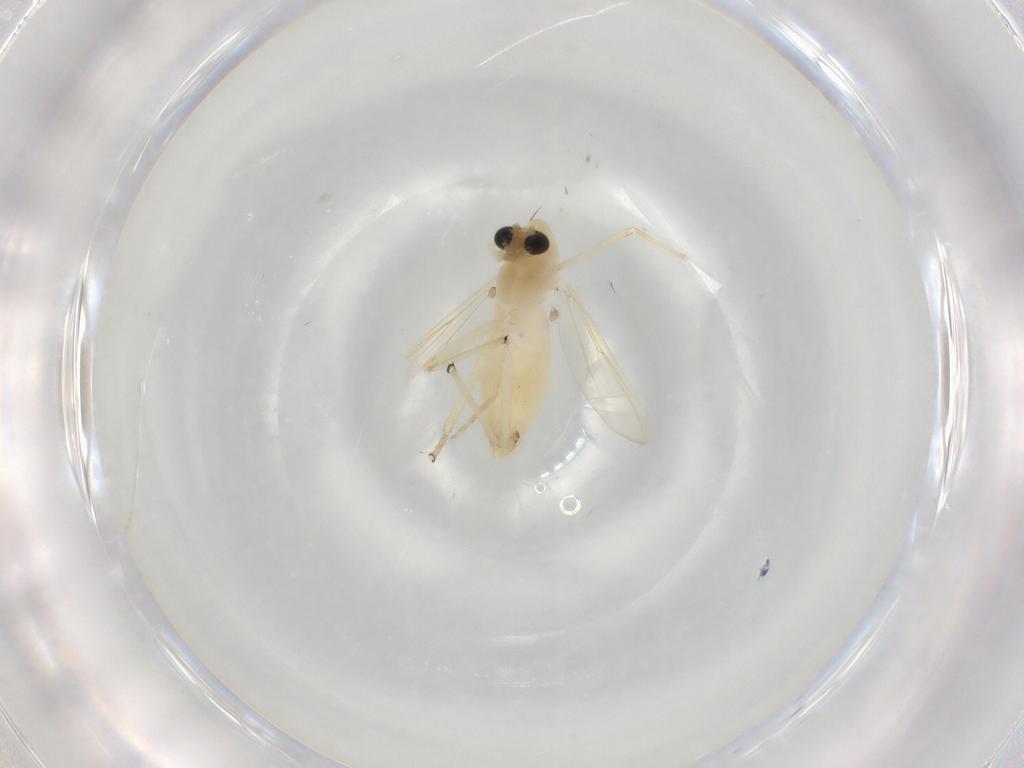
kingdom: Animalia
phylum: Arthropoda
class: Insecta
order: Diptera
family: Chironomidae
